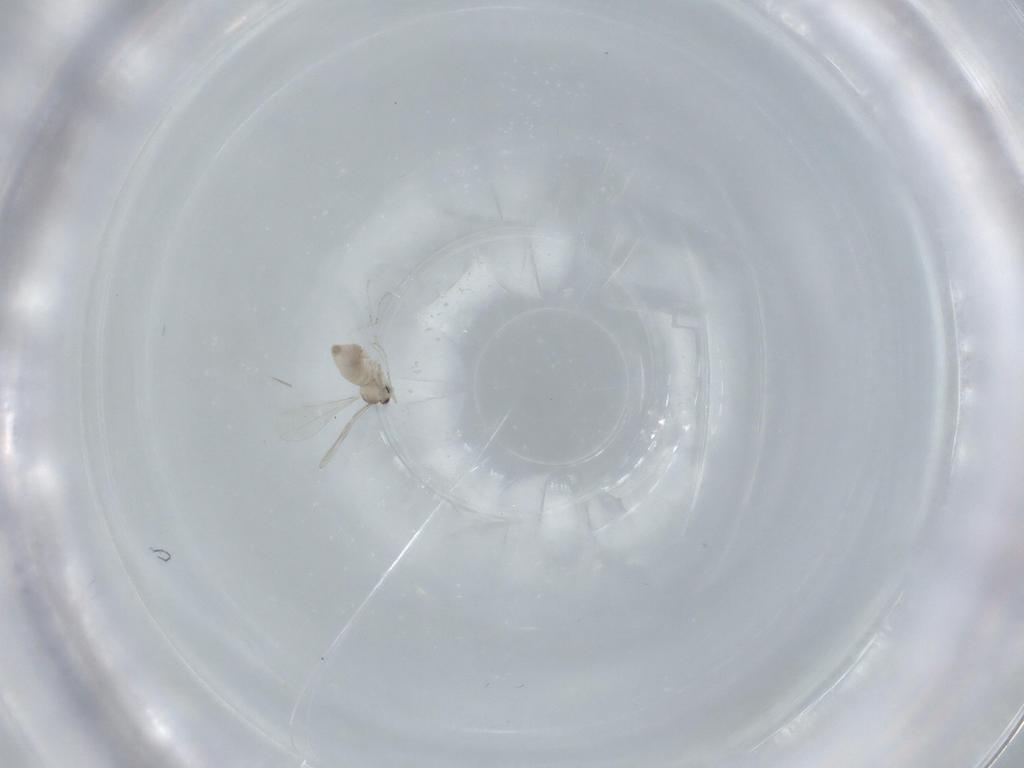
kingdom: Animalia
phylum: Arthropoda
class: Insecta
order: Diptera
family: Cecidomyiidae
